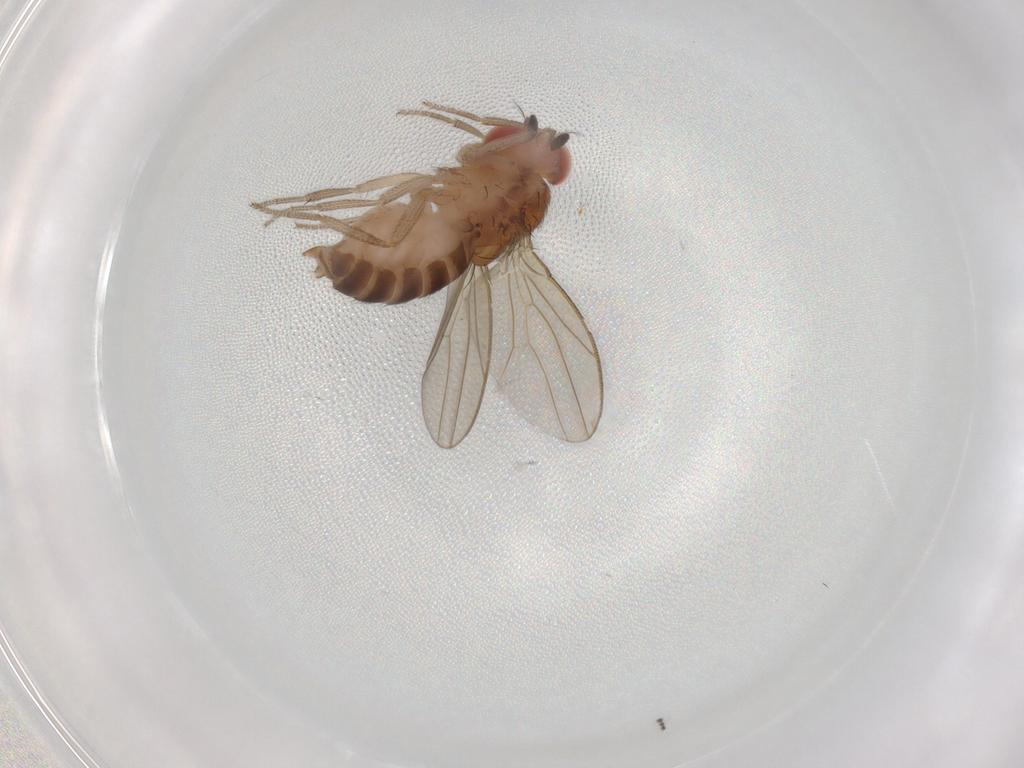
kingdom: Animalia
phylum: Arthropoda
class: Insecta
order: Diptera
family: Drosophilidae
